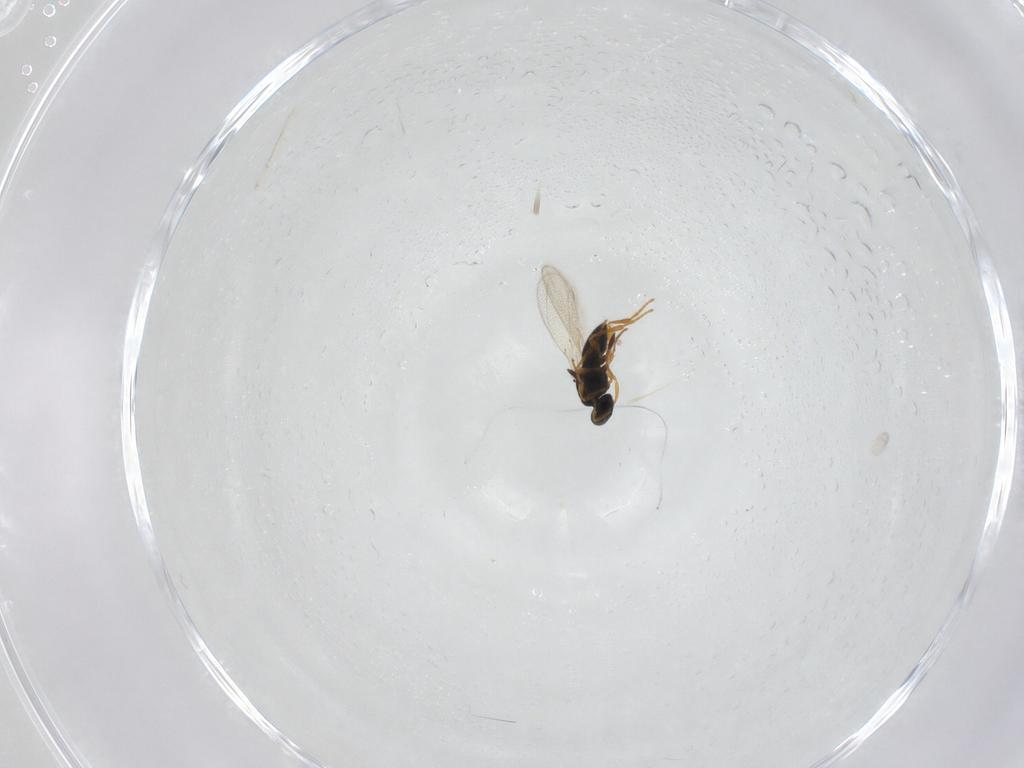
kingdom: Animalia
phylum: Arthropoda
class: Insecta
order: Hymenoptera
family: Platygastridae
